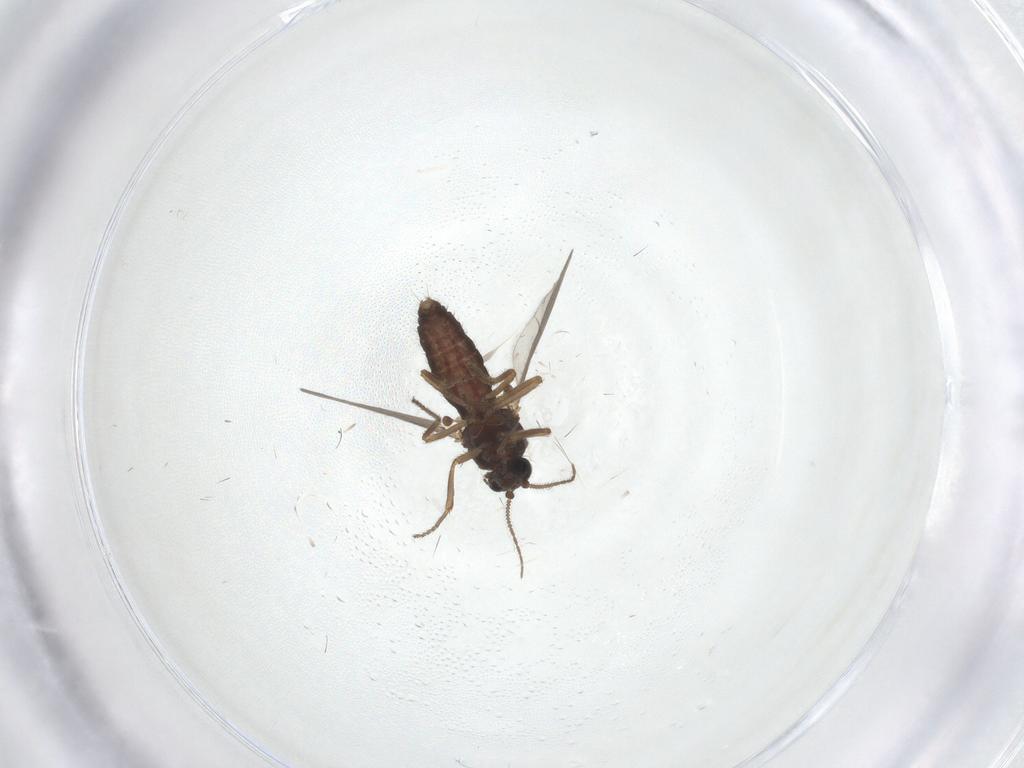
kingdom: Animalia
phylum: Arthropoda
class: Insecta
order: Diptera
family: Ceratopogonidae
